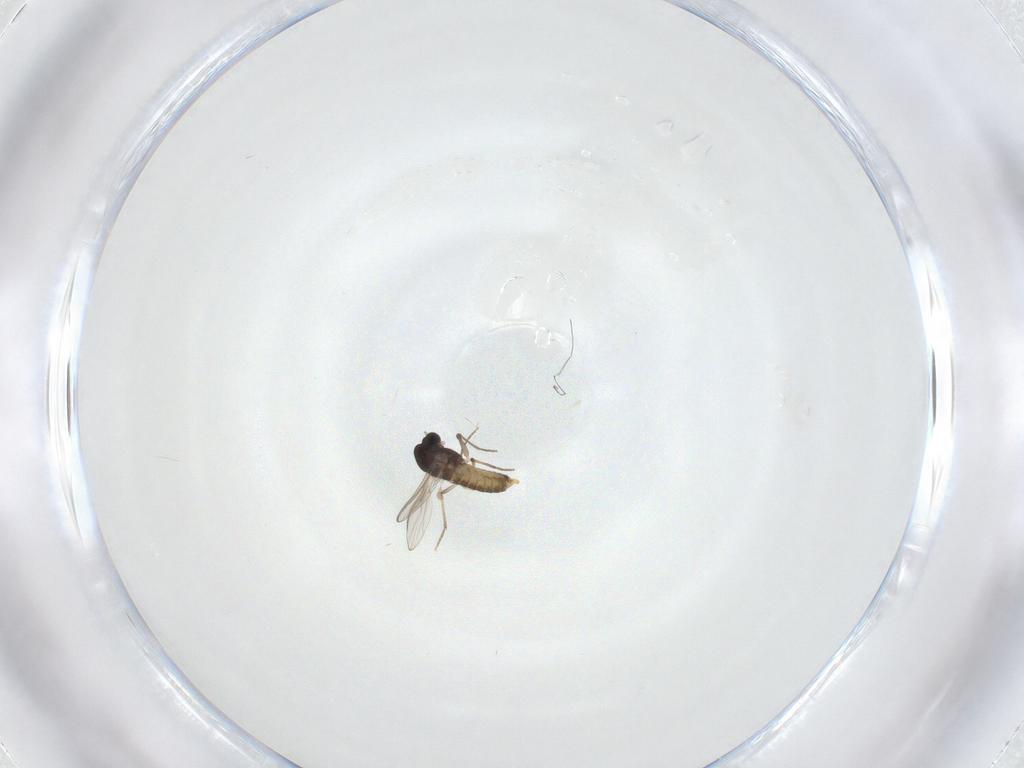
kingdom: Animalia
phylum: Arthropoda
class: Insecta
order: Diptera
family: Chironomidae
